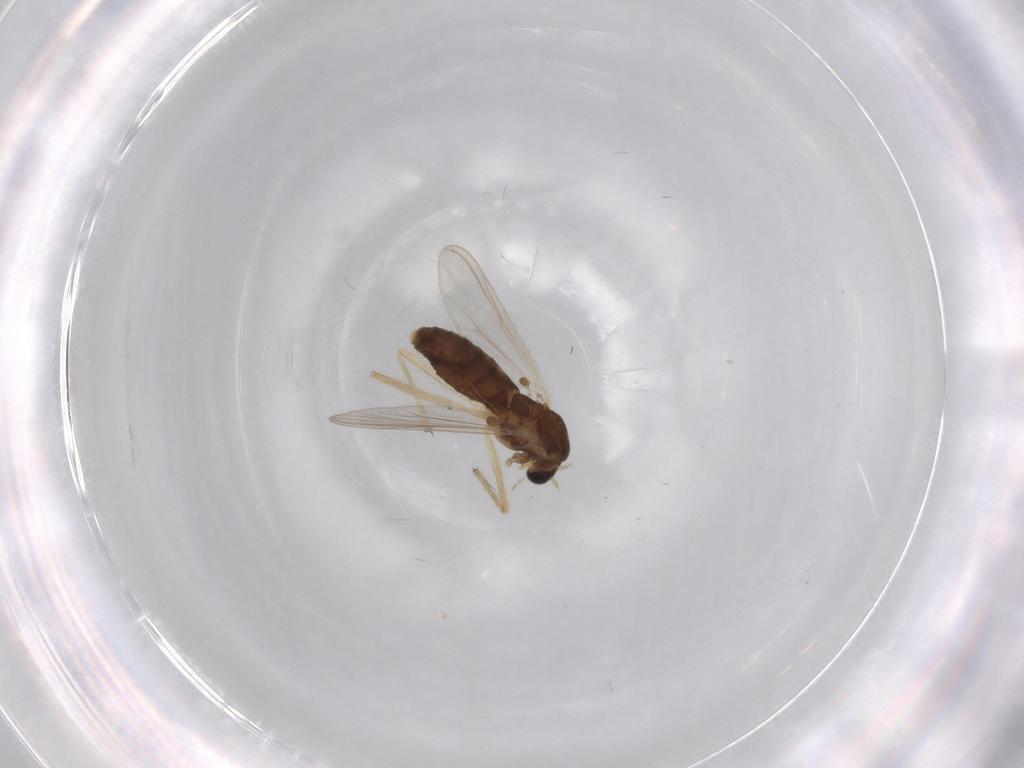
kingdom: Animalia
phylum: Arthropoda
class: Insecta
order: Diptera
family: Chironomidae
